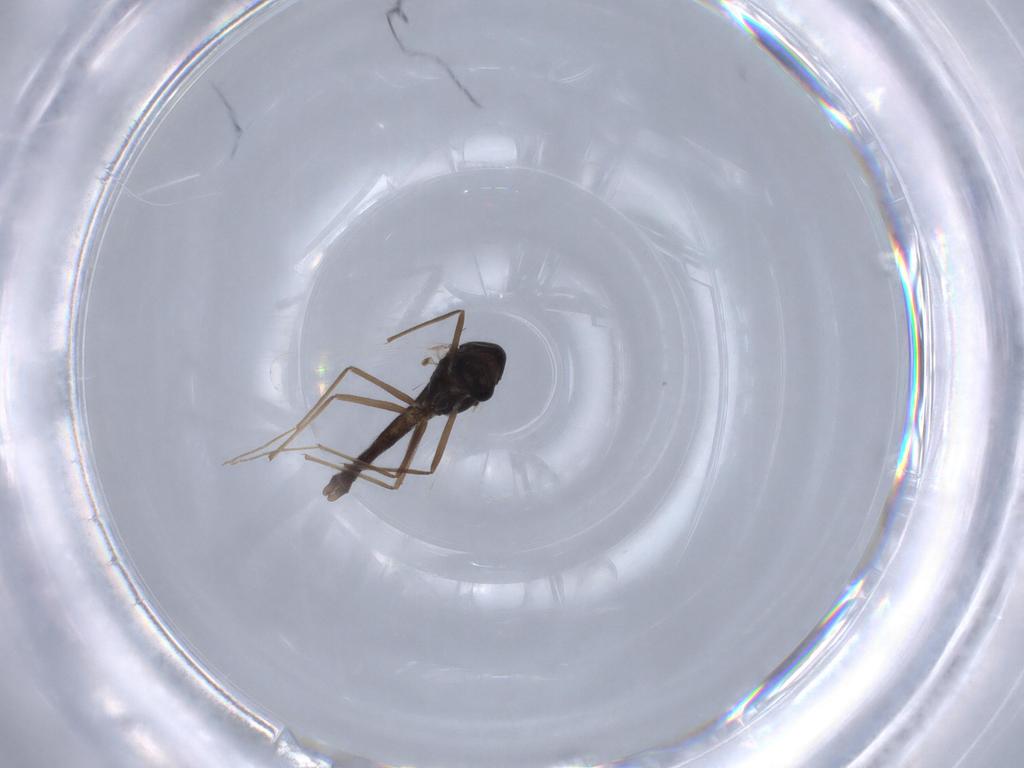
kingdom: Animalia
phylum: Arthropoda
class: Insecta
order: Diptera
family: Chironomidae
